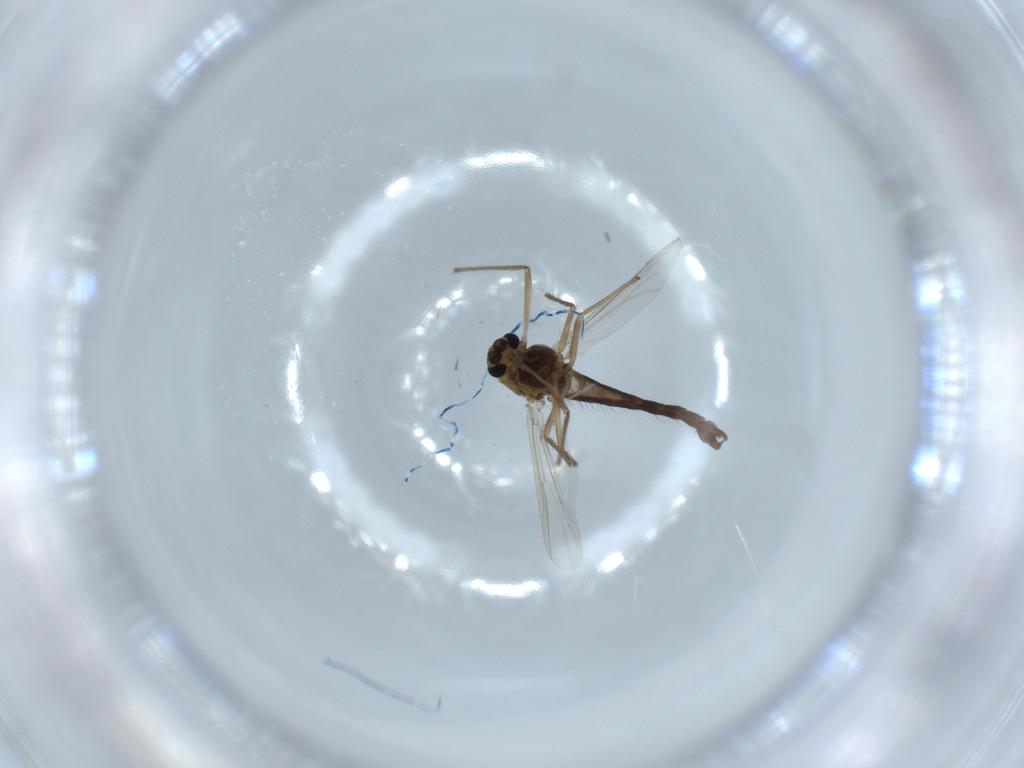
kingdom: Animalia
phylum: Arthropoda
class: Insecta
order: Diptera
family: Chironomidae
